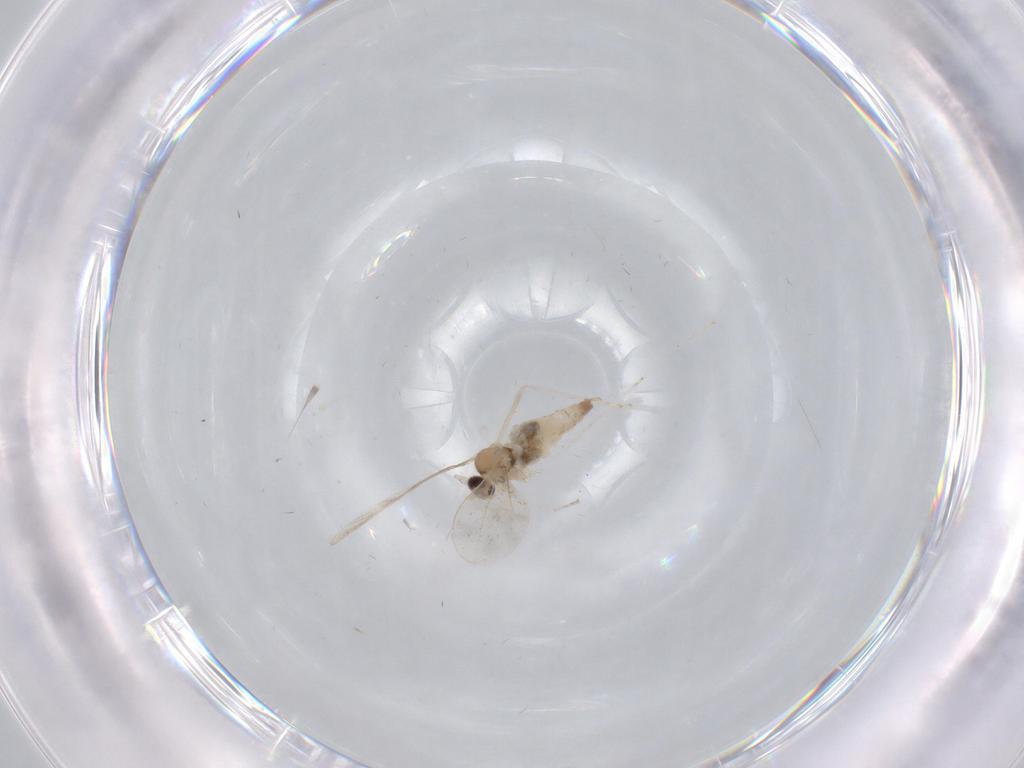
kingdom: Animalia
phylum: Arthropoda
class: Insecta
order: Diptera
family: Cecidomyiidae
